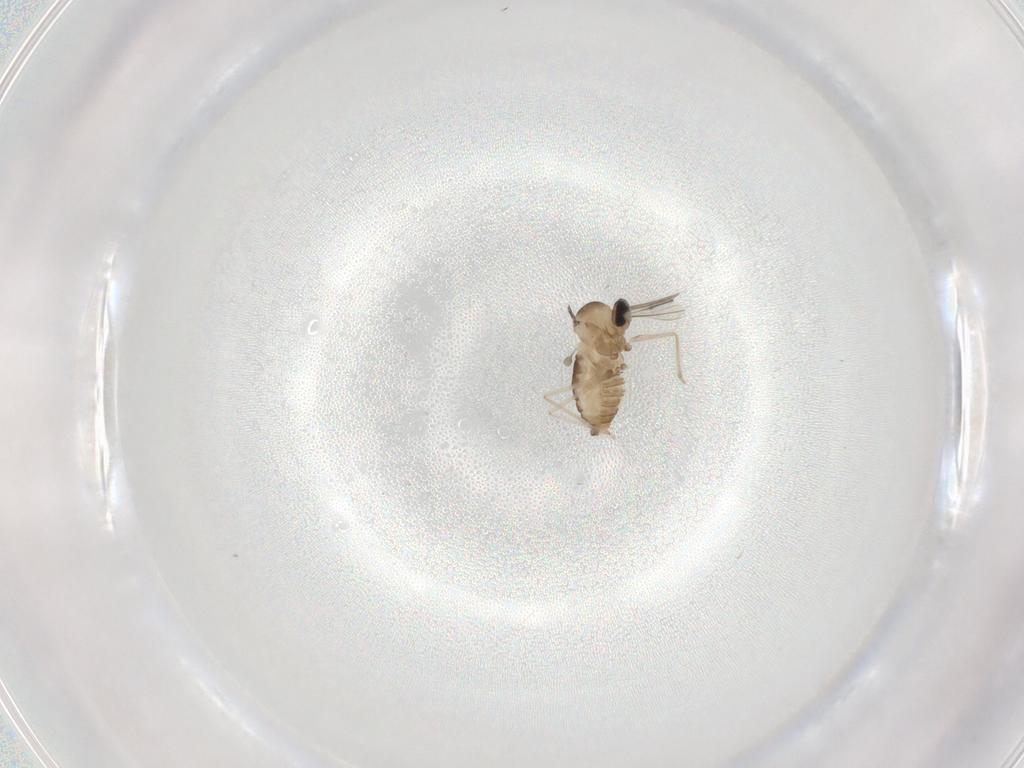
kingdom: Animalia
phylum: Arthropoda
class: Insecta
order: Diptera
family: Cecidomyiidae
